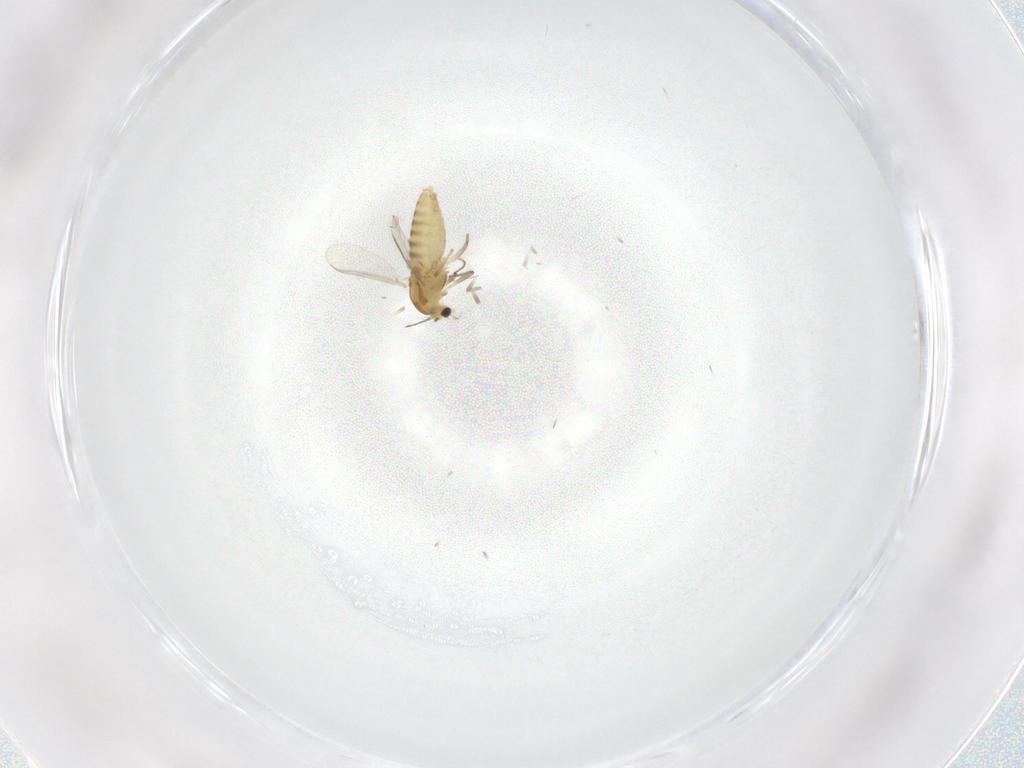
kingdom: Animalia
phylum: Arthropoda
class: Insecta
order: Diptera
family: Chironomidae
